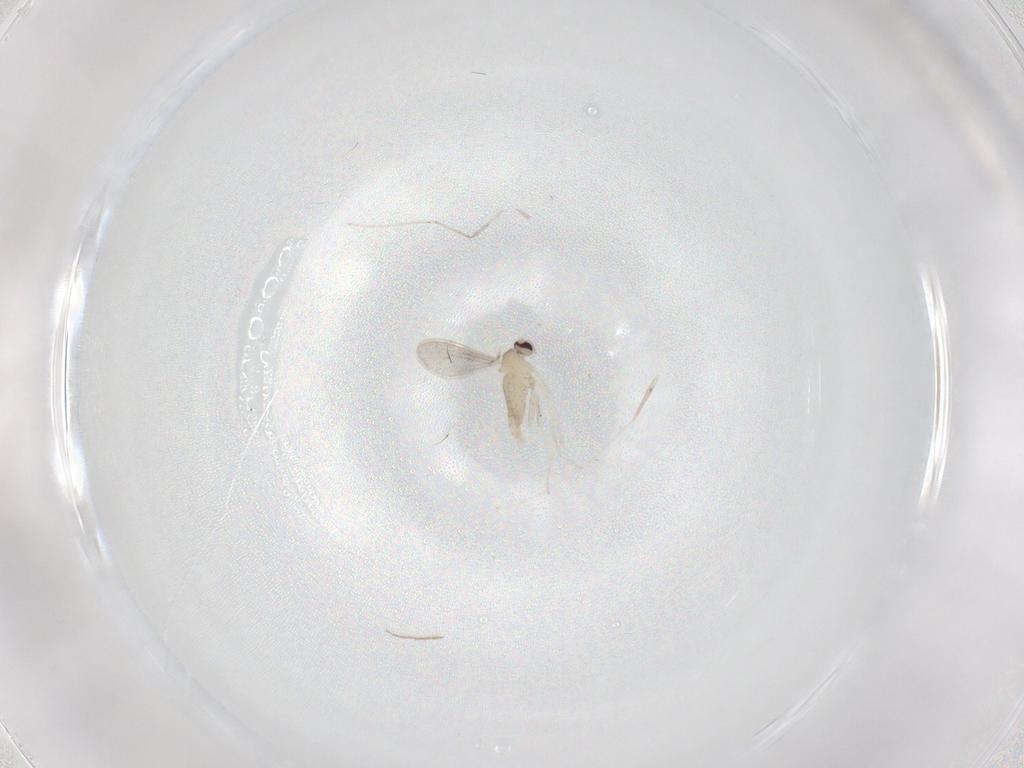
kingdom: Animalia
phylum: Arthropoda
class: Insecta
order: Diptera
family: Cecidomyiidae
